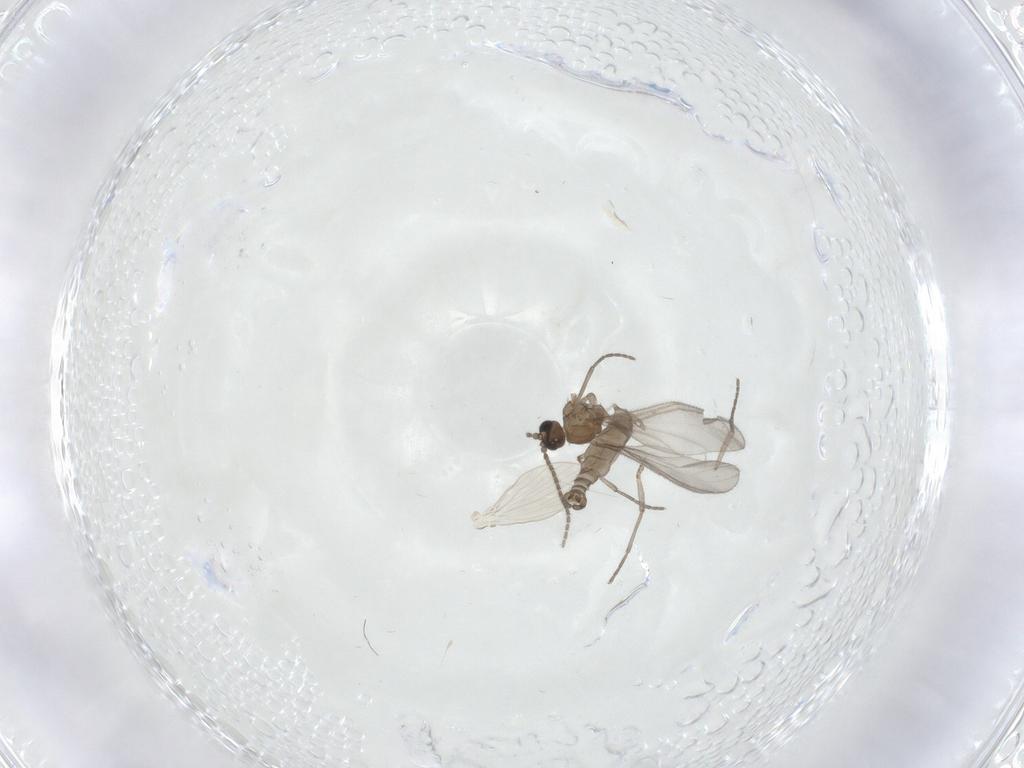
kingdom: Animalia
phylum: Arthropoda
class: Insecta
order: Diptera
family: Sciaridae
